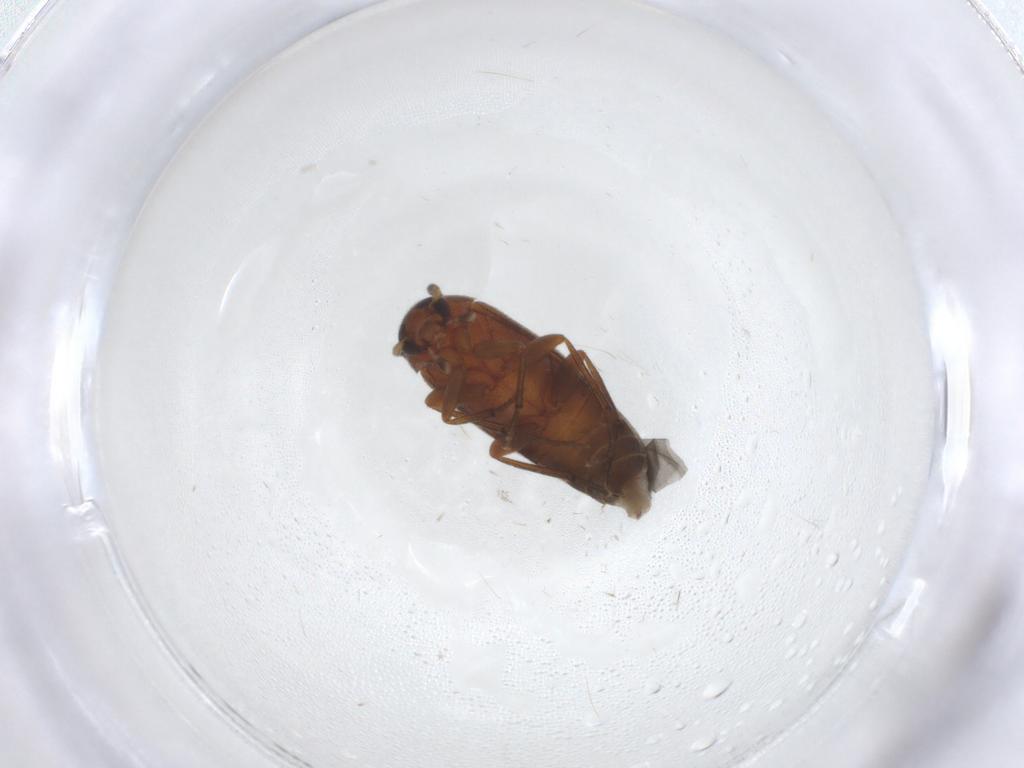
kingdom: Animalia
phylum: Arthropoda
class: Insecta
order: Coleoptera
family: Melandryidae
